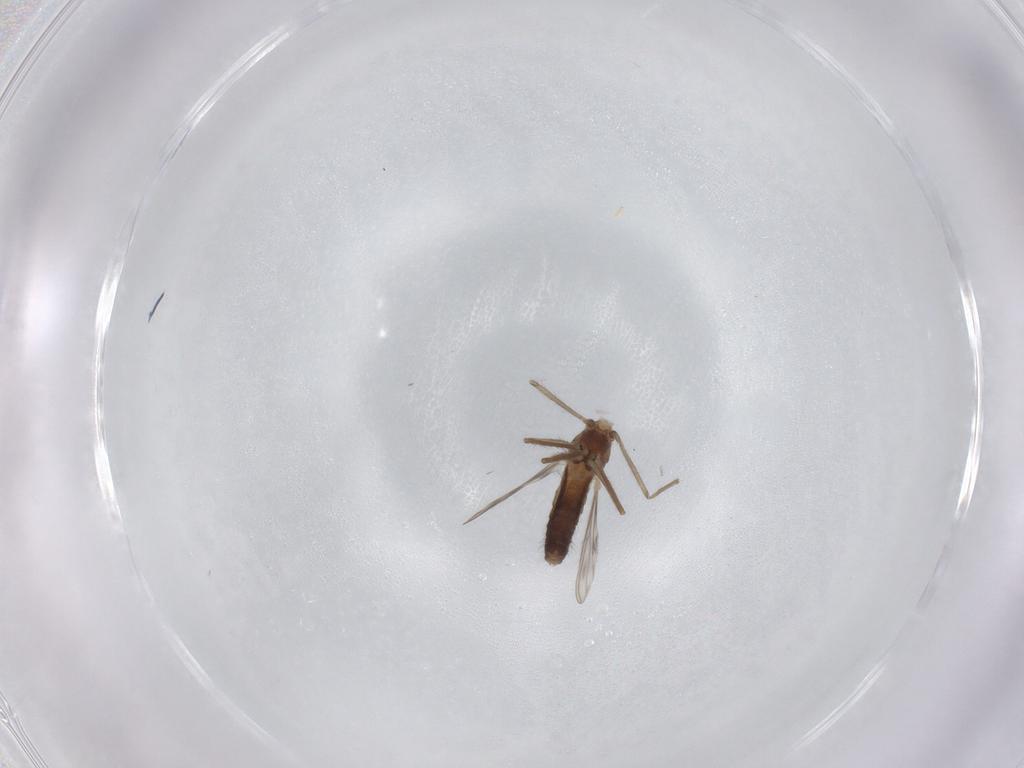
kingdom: Animalia
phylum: Arthropoda
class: Insecta
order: Diptera
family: Chironomidae
